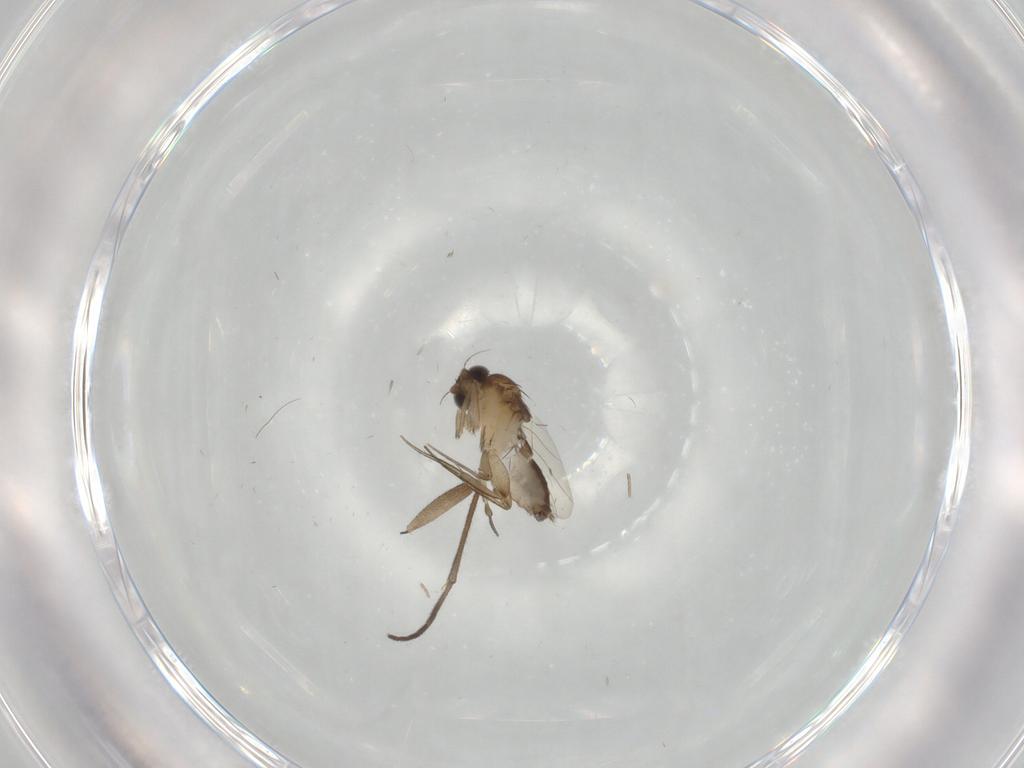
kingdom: Animalia
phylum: Arthropoda
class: Insecta
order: Diptera
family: Phoridae
